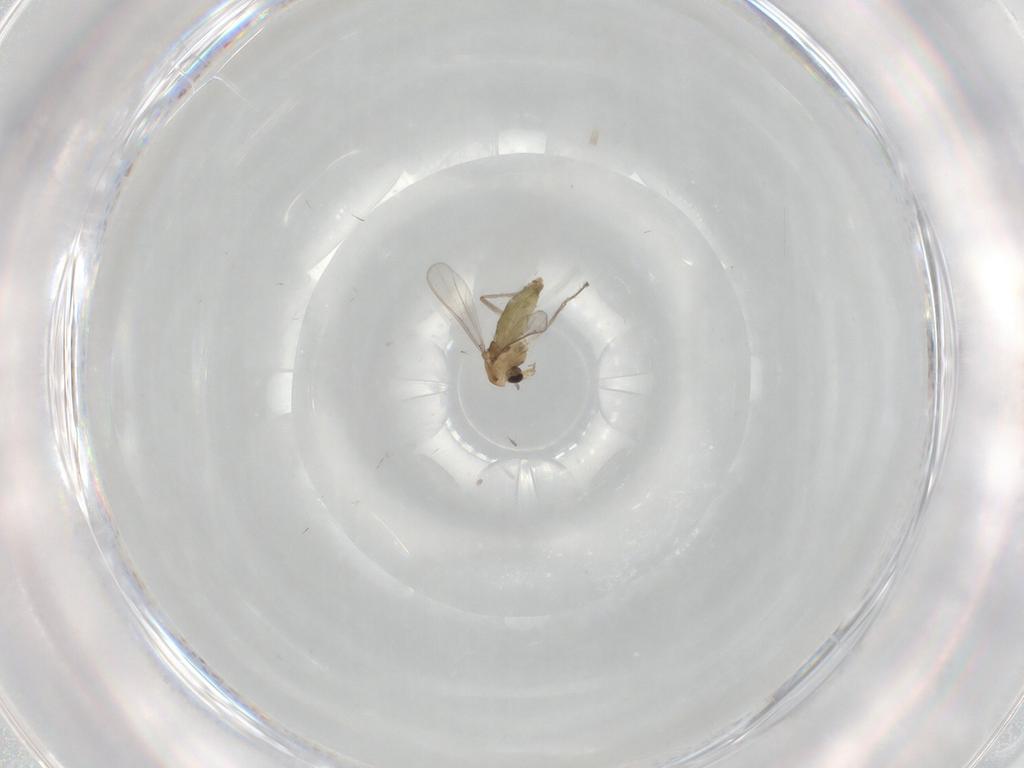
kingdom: Animalia
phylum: Arthropoda
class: Insecta
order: Diptera
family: Chironomidae
